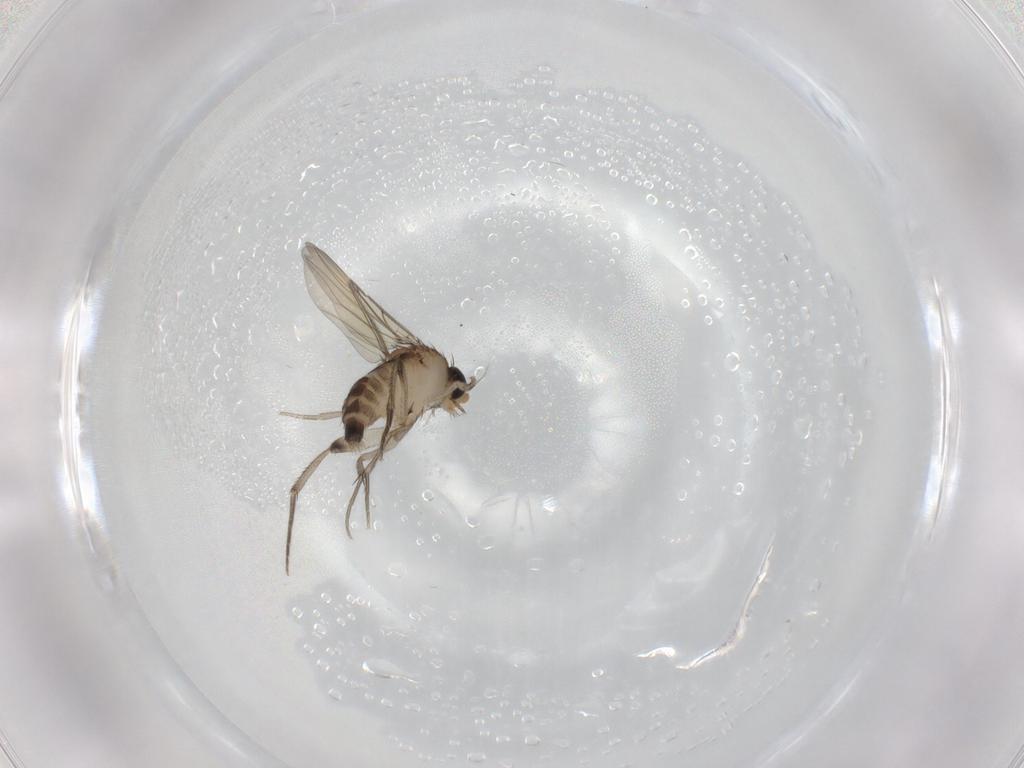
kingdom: Animalia
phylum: Arthropoda
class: Insecta
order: Diptera
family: Phoridae
